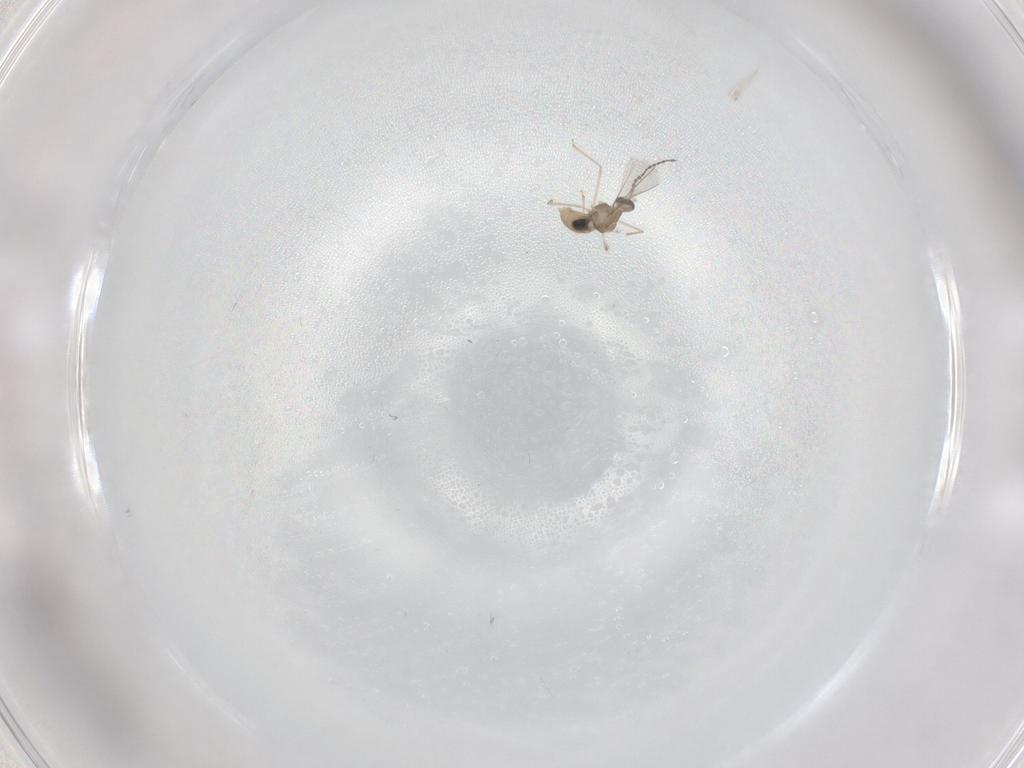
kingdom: Animalia
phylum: Arthropoda
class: Insecta
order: Diptera
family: Cecidomyiidae
